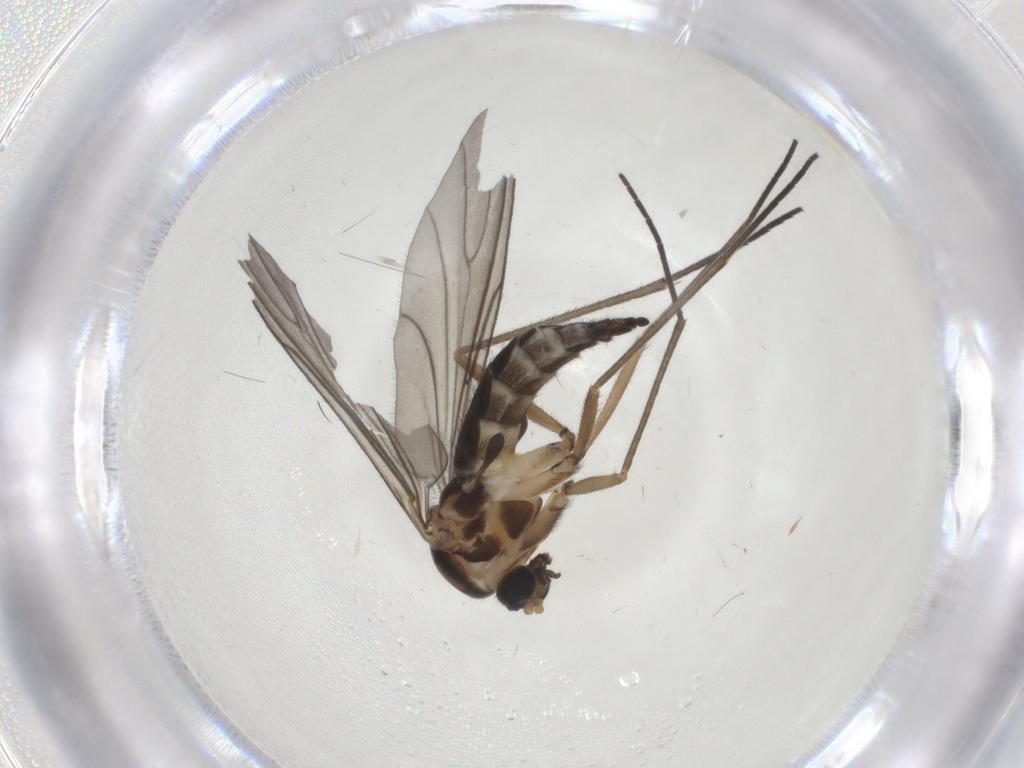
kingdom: Animalia
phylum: Arthropoda
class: Insecta
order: Diptera
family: Sciaridae
